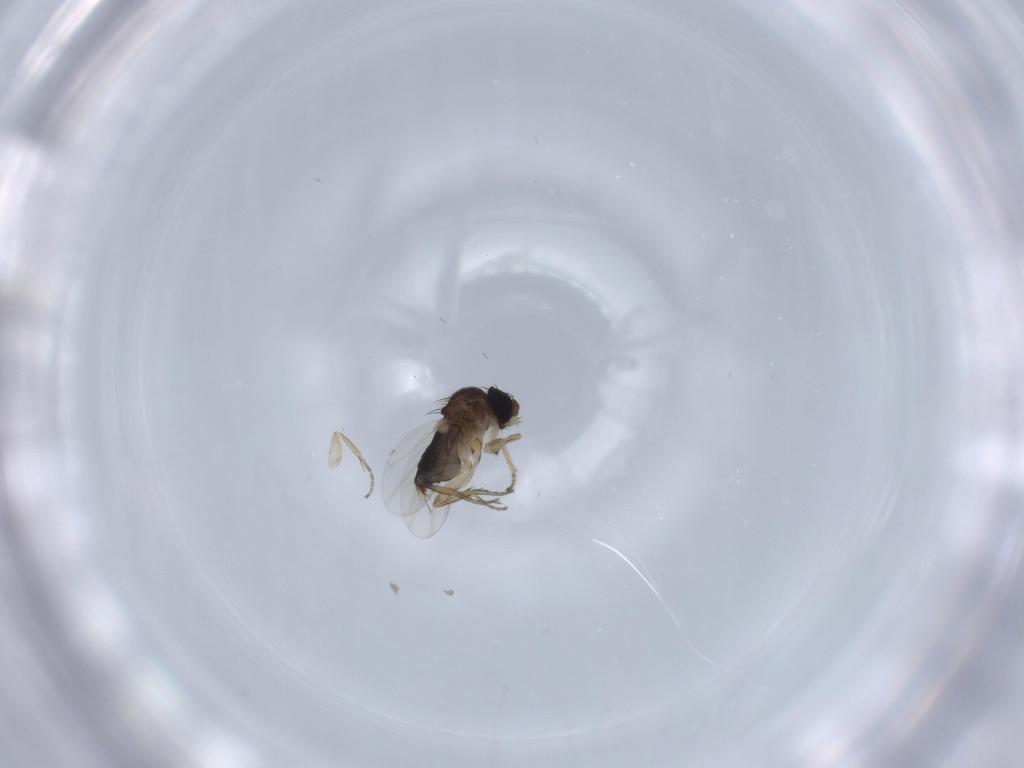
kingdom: Animalia
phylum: Arthropoda
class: Insecta
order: Diptera
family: Phoridae
